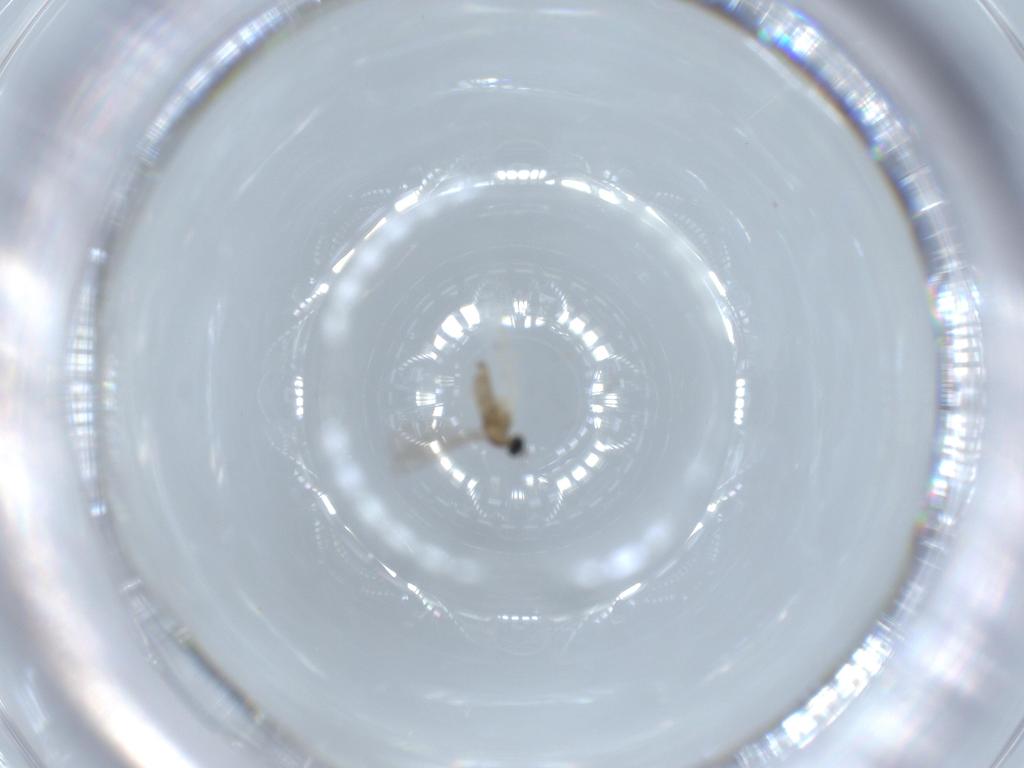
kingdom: Animalia
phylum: Arthropoda
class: Insecta
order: Diptera
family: Cecidomyiidae
